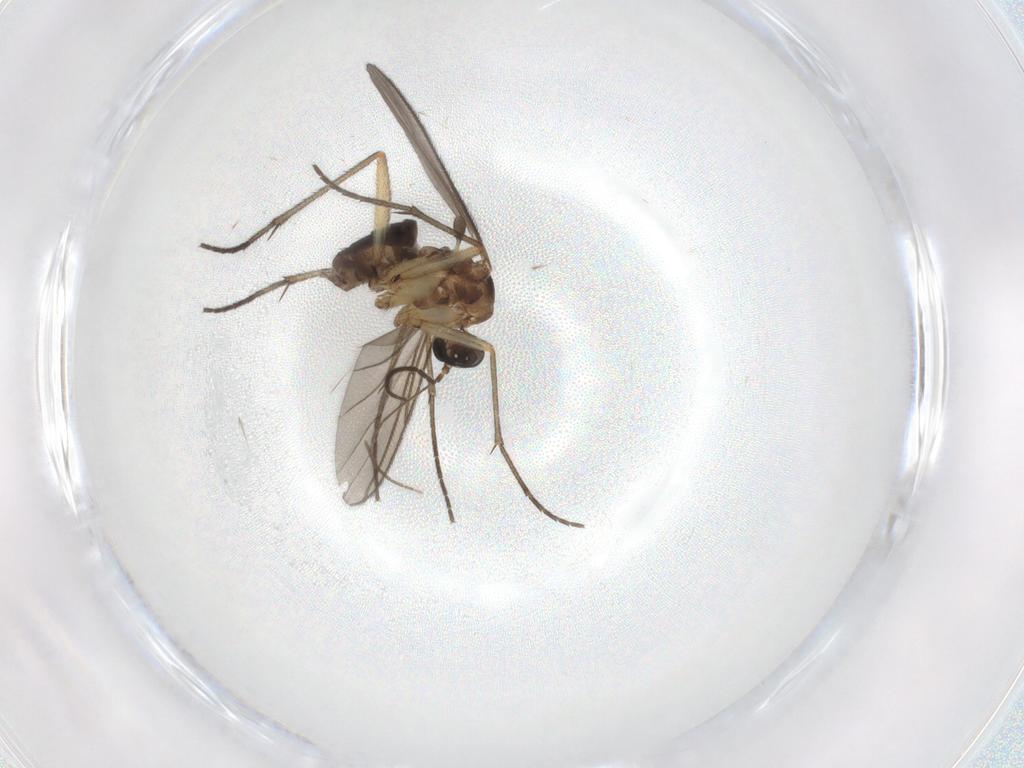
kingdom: Animalia
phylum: Arthropoda
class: Insecta
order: Diptera
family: Sciaridae
